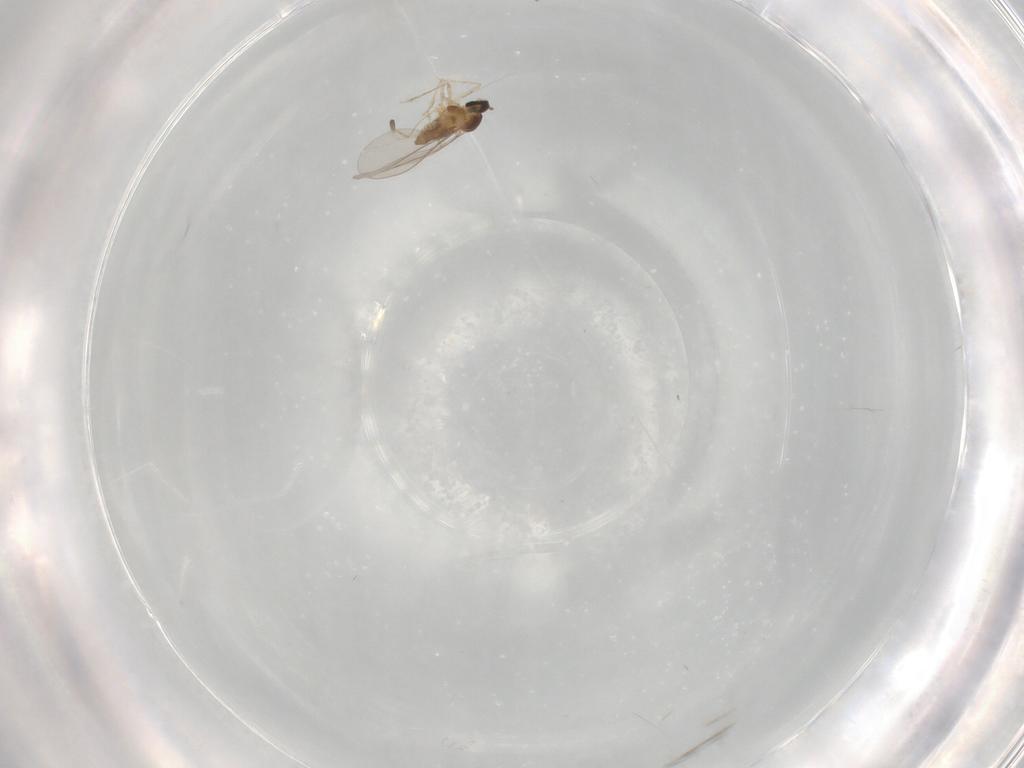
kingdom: Animalia
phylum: Arthropoda
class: Insecta
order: Diptera
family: Cecidomyiidae
